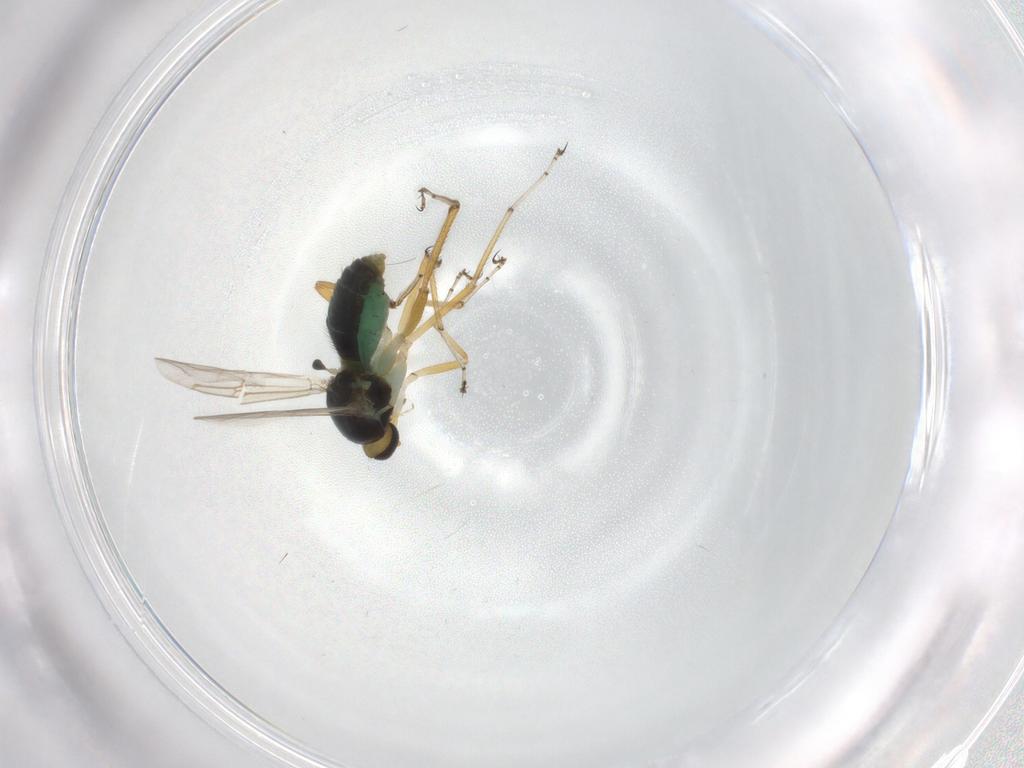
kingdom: Animalia
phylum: Arthropoda
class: Insecta
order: Diptera
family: Ceratopogonidae
